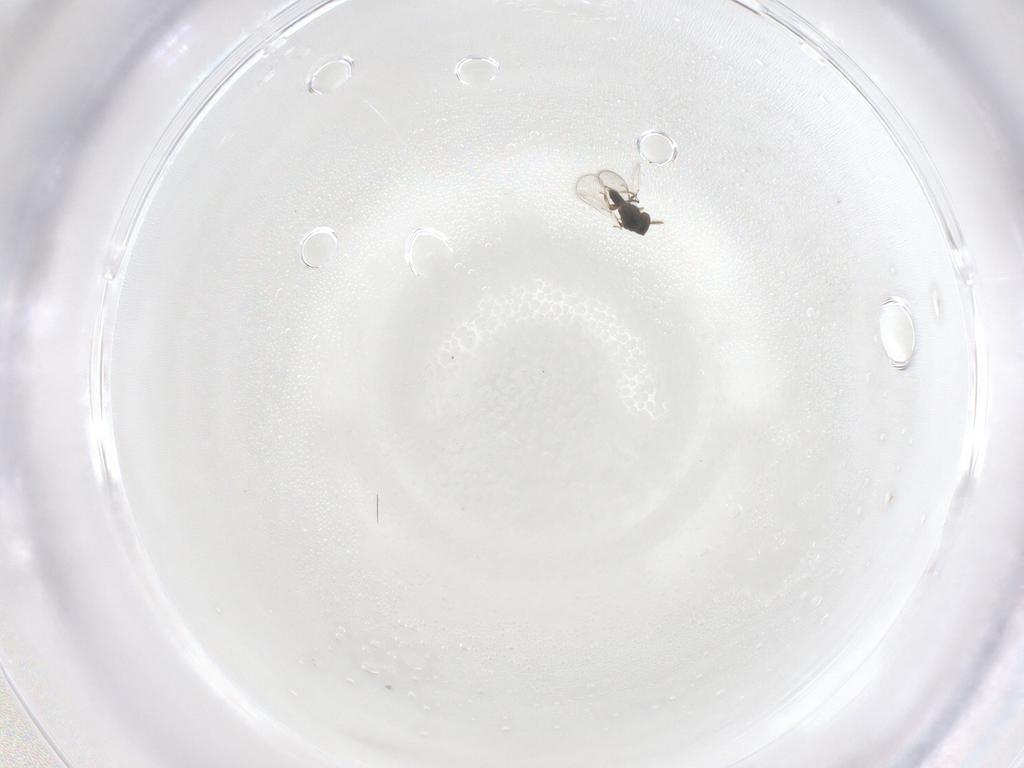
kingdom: Animalia
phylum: Arthropoda
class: Insecta
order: Hymenoptera
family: Eulophidae
